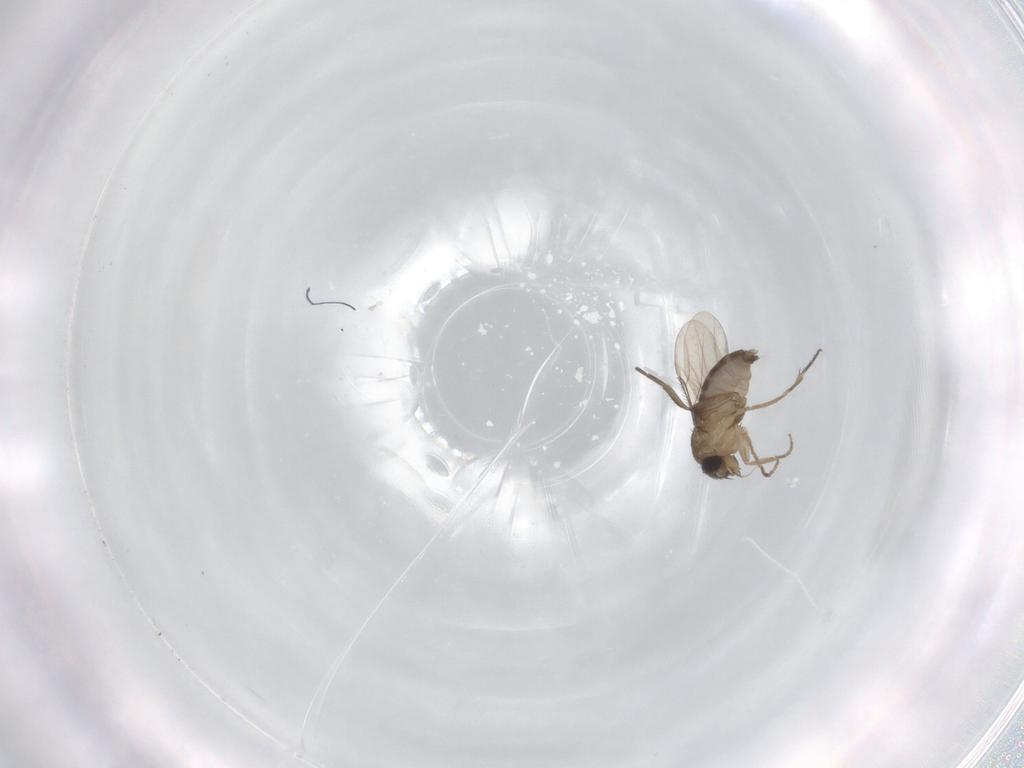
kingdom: Animalia
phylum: Arthropoda
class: Insecta
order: Diptera
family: Phoridae
